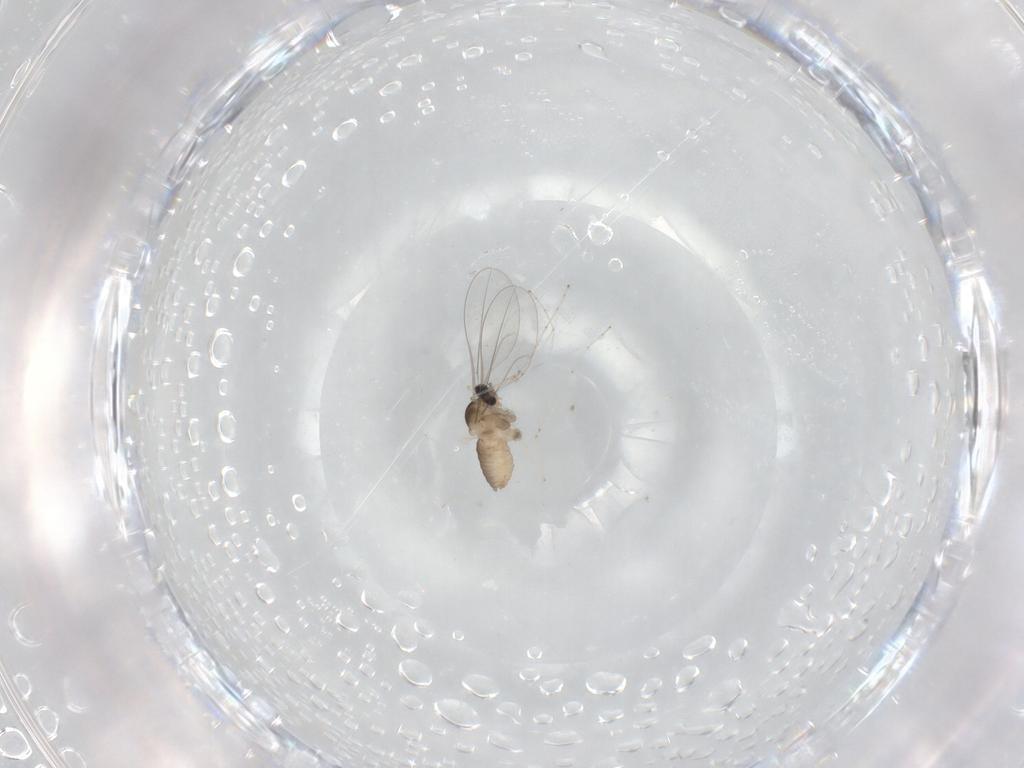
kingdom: Animalia
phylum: Arthropoda
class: Insecta
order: Diptera
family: Cecidomyiidae
